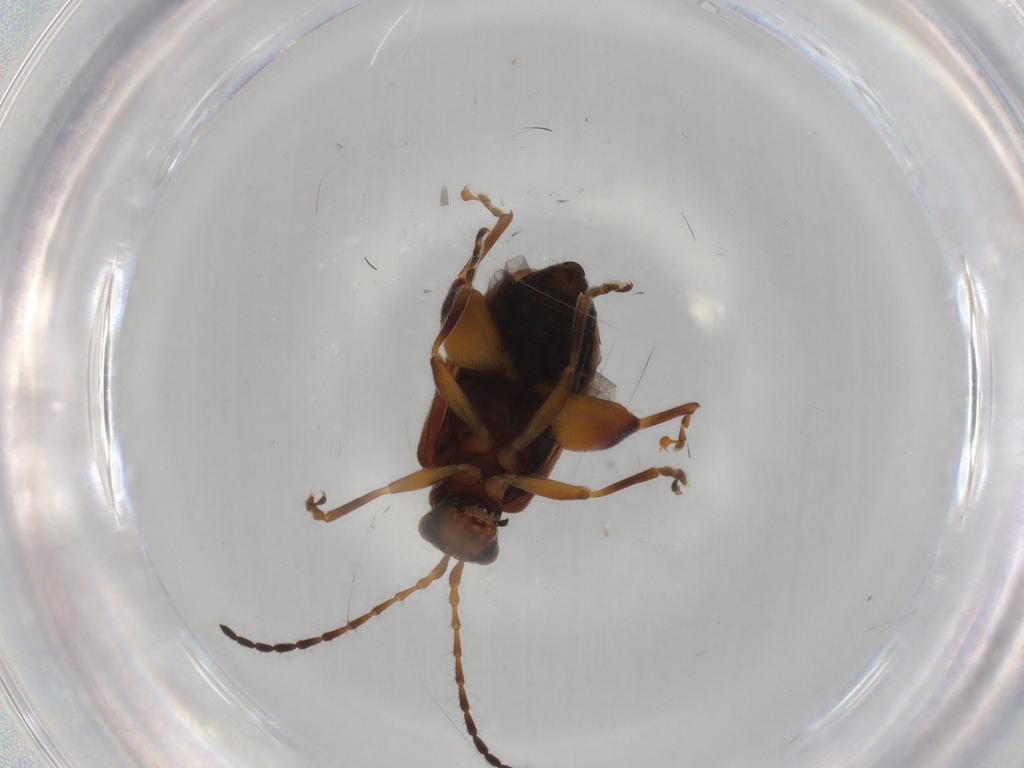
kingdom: Animalia
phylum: Arthropoda
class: Insecta
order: Coleoptera
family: Chrysomelidae
